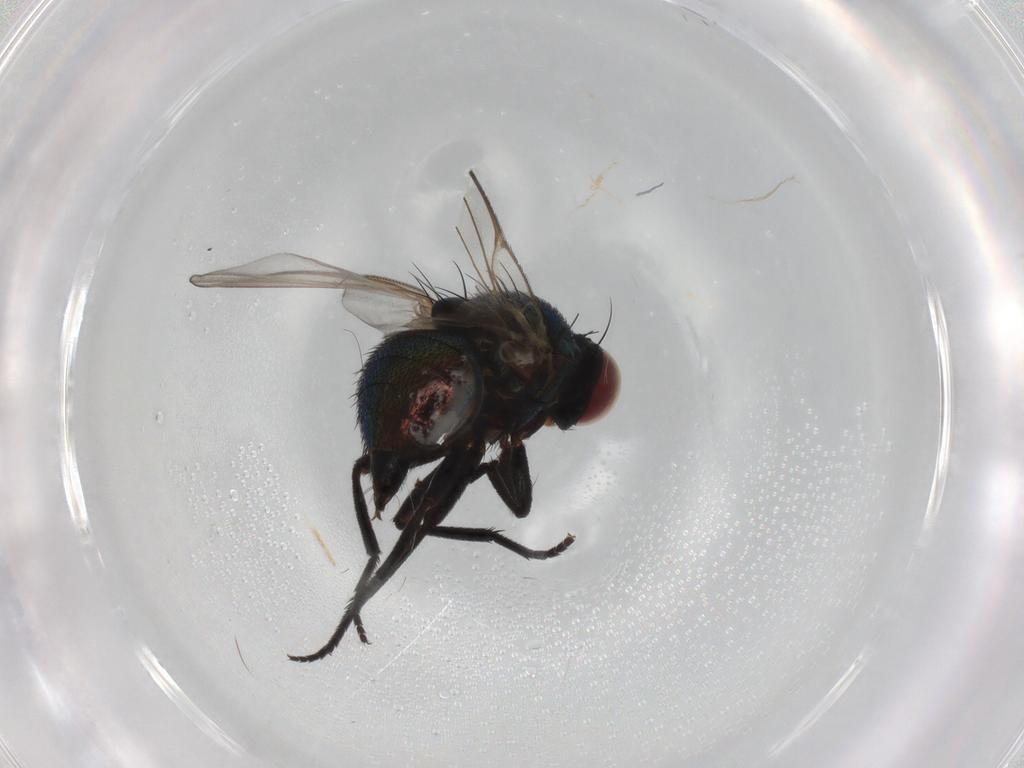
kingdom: Animalia
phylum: Arthropoda
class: Insecta
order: Diptera
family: Agromyzidae
